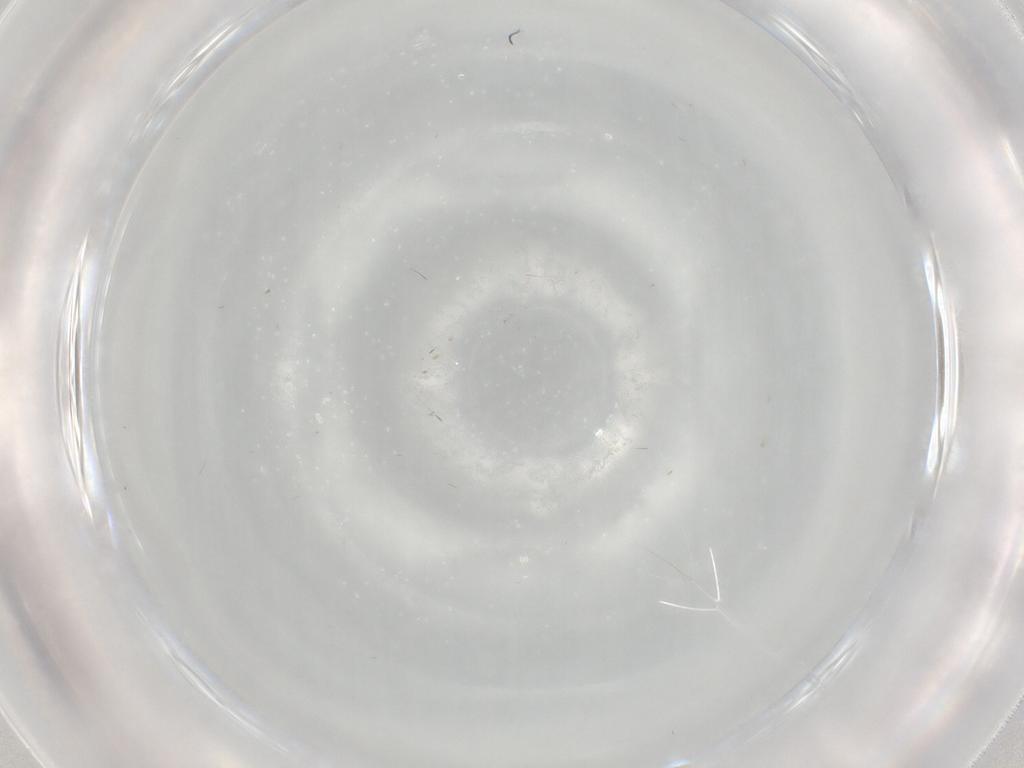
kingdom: Animalia
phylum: Arthropoda
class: Insecta
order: Diptera
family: Cecidomyiidae
